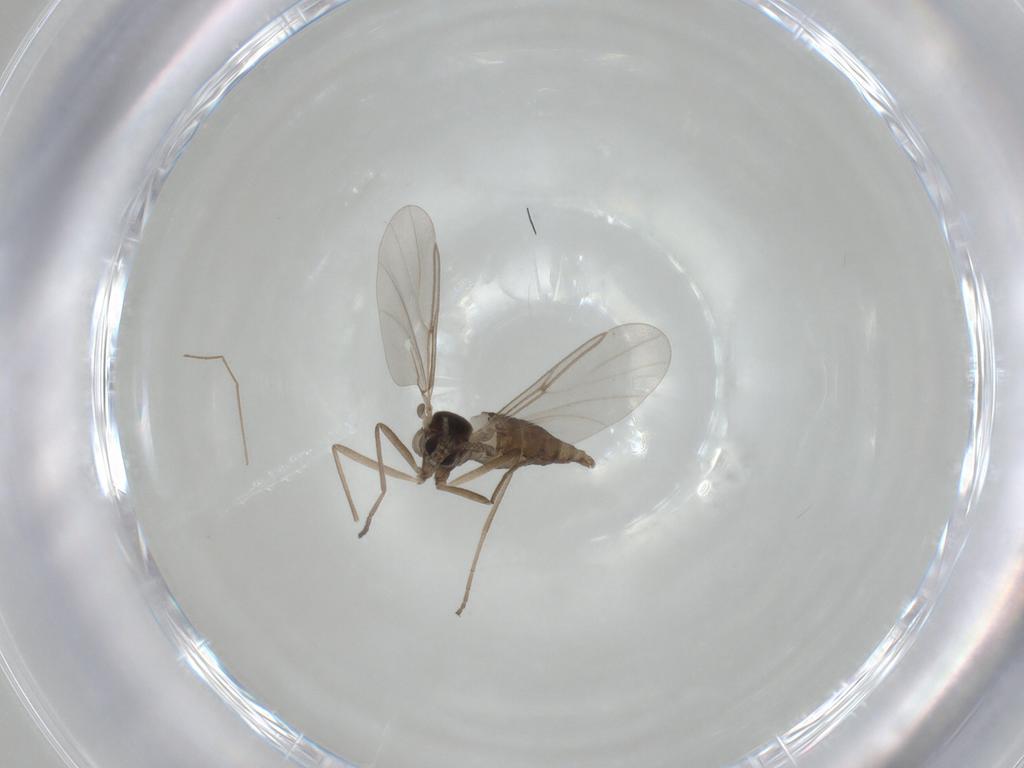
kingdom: Animalia
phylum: Arthropoda
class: Insecta
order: Diptera
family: Cecidomyiidae
